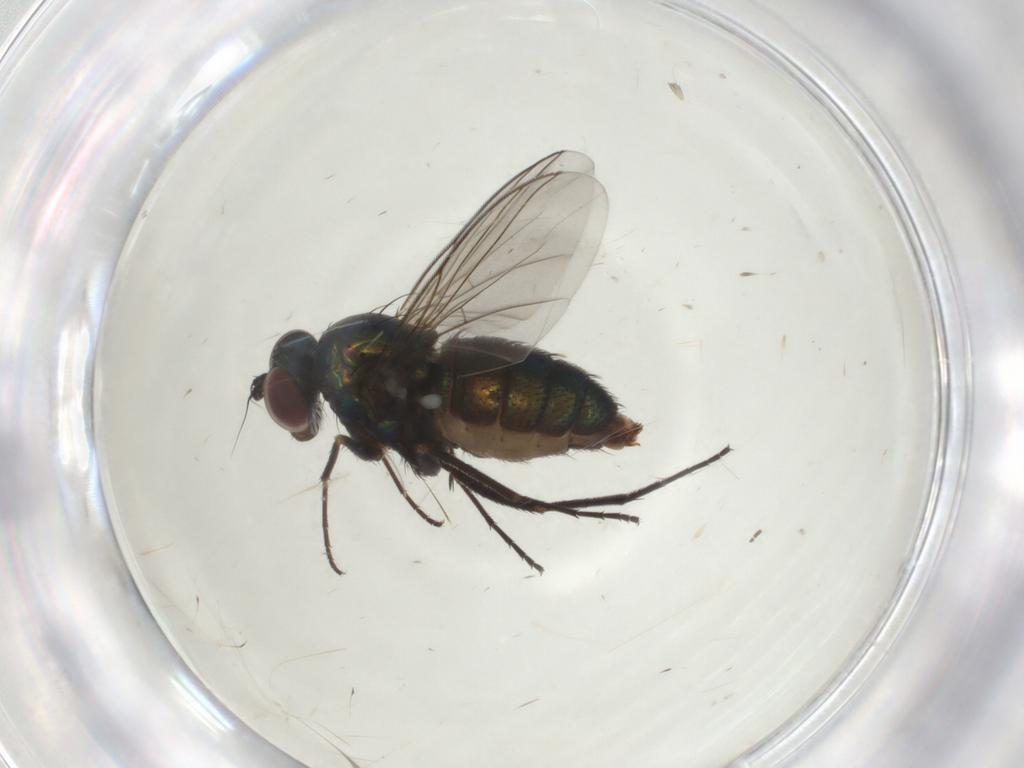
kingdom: Animalia
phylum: Arthropoda
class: Insecta
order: Diptera
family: Dolichopodidae
